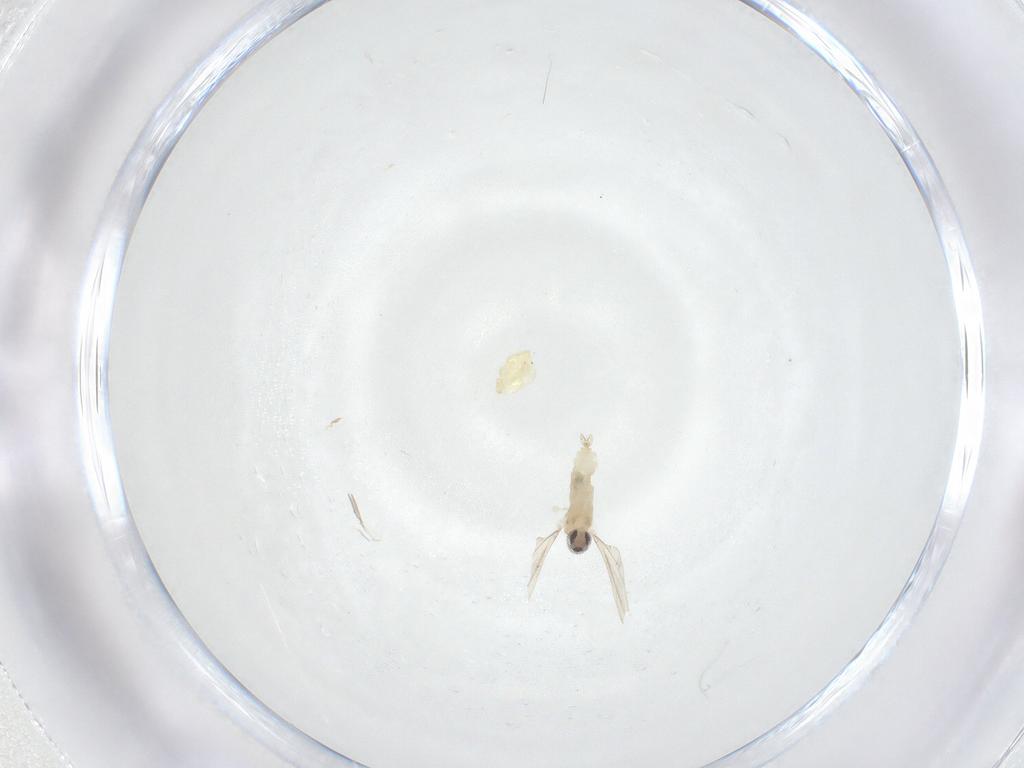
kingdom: Animalia
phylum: Arthropoda
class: Insecta
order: Diptera
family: Cecidomyiidae
